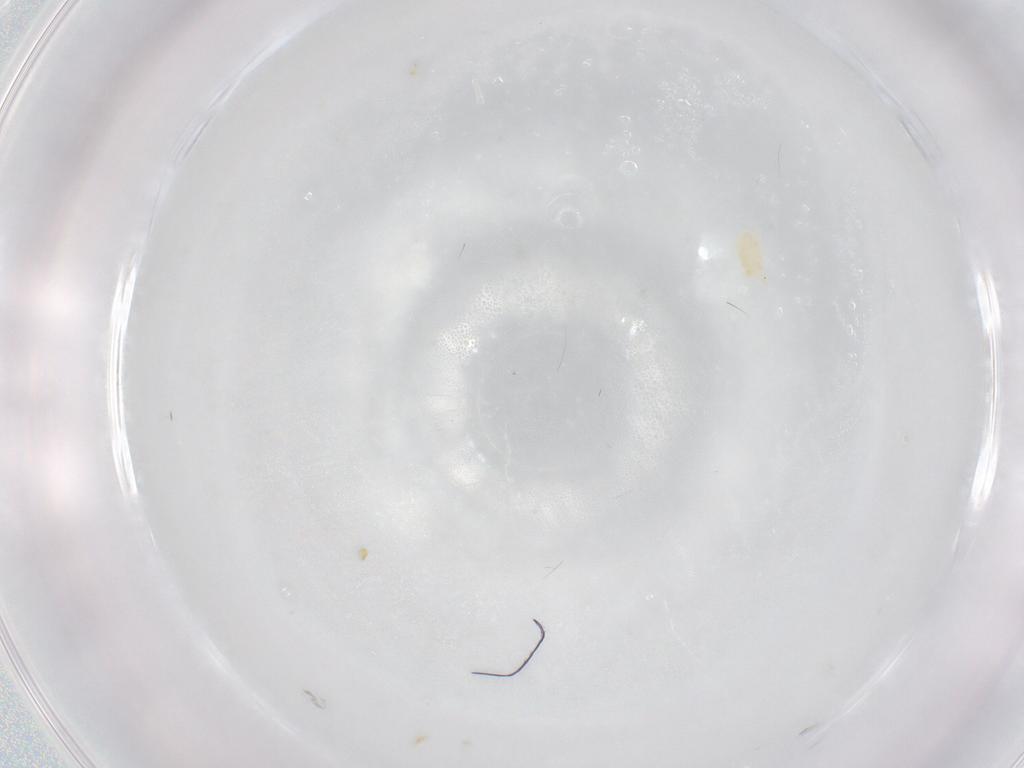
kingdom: Animalia
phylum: Arthropoda
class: Arachnida
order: Trombidiformes
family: Eupodidae
